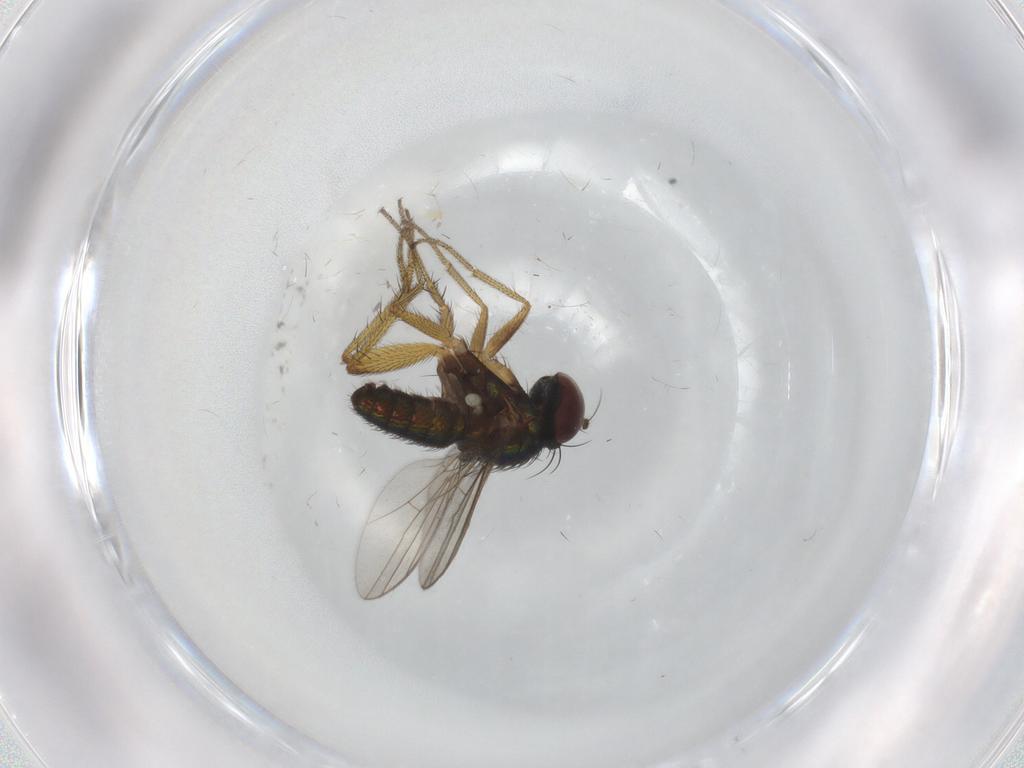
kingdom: Animalia
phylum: Arthropoda
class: Insecta
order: Diptera
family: Dolichopodidae
